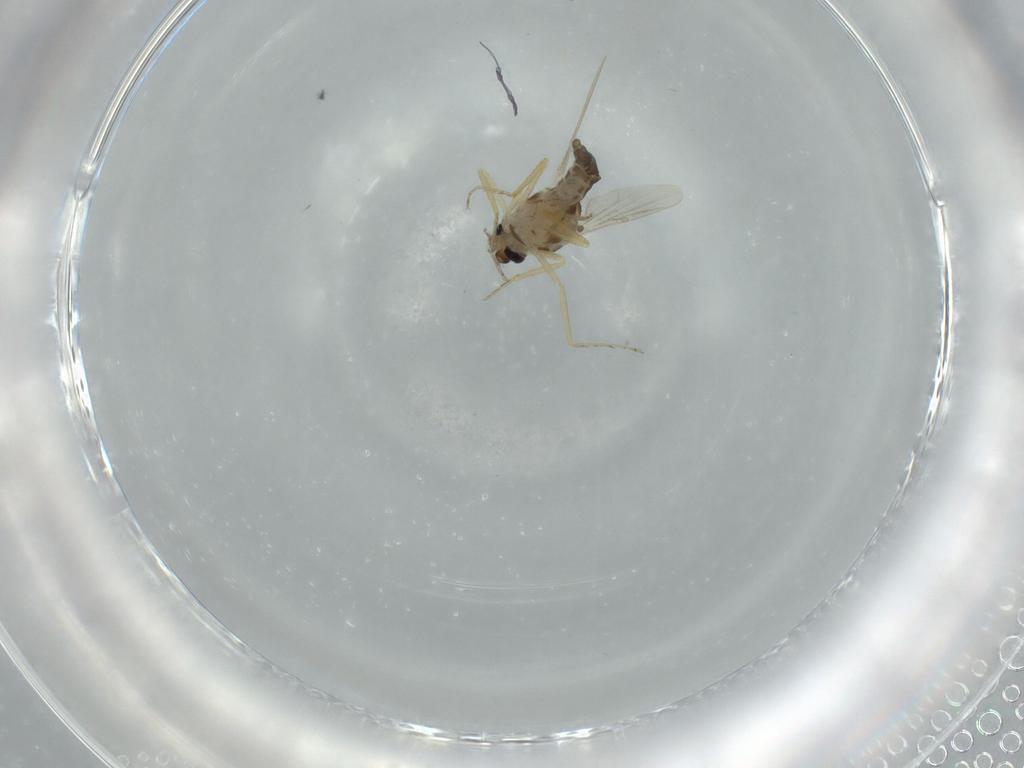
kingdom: Animalia
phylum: Arthropoda
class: Insecta
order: Diptera
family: Ceratopogonidae
